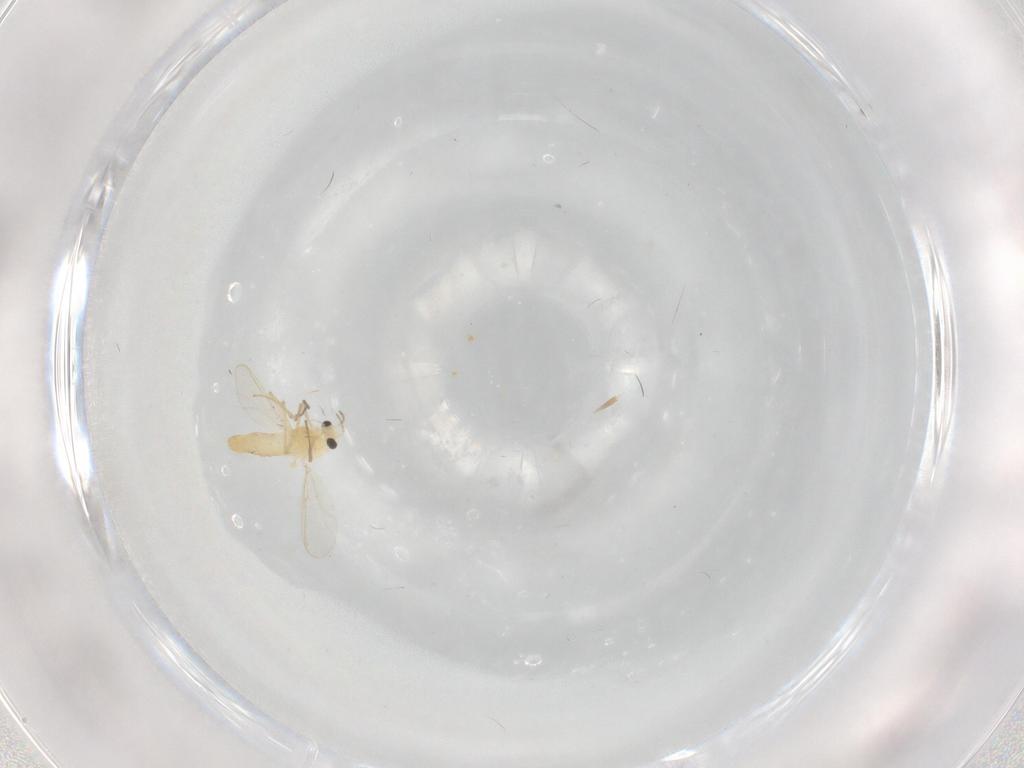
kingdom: Animalia
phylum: Arthropoda
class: Insecta
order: Diptera
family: Chironomidae
